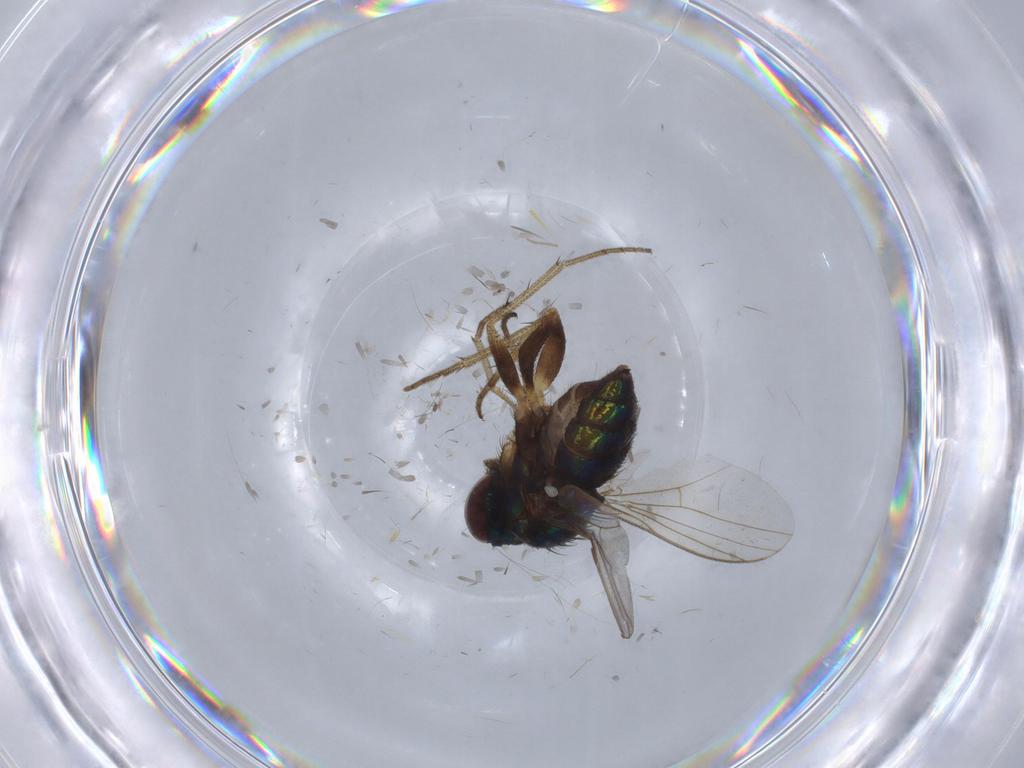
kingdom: Animalia
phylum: Arthropoda
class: Insecta
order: Diptera
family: Dolichopodidae
